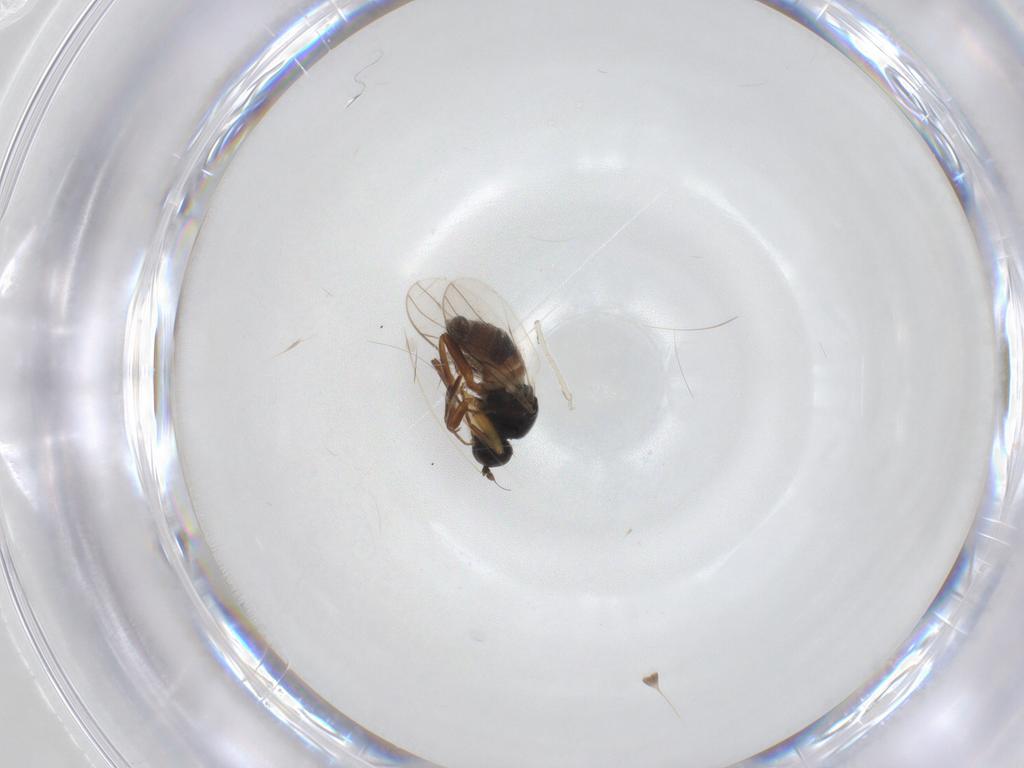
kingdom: Animalia
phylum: Arthropoda
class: Insecta
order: Diptera
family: Hybotidae
